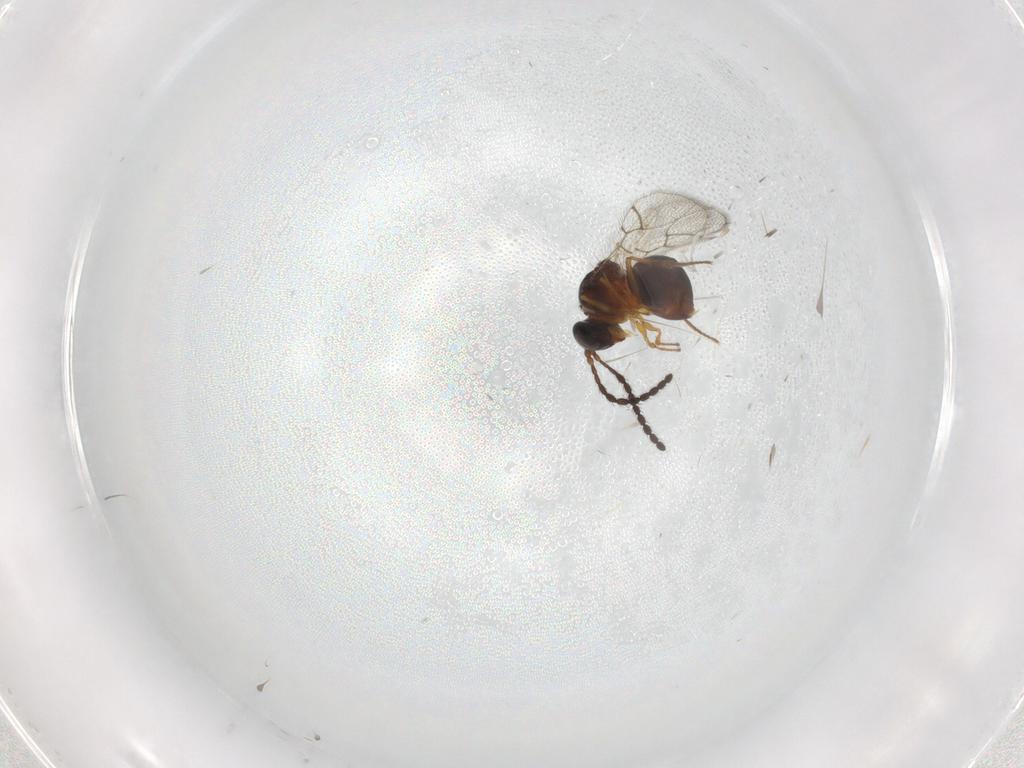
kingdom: Animalia
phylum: Arthropoda
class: Insecta
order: Hymenoptera
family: Figitidae
